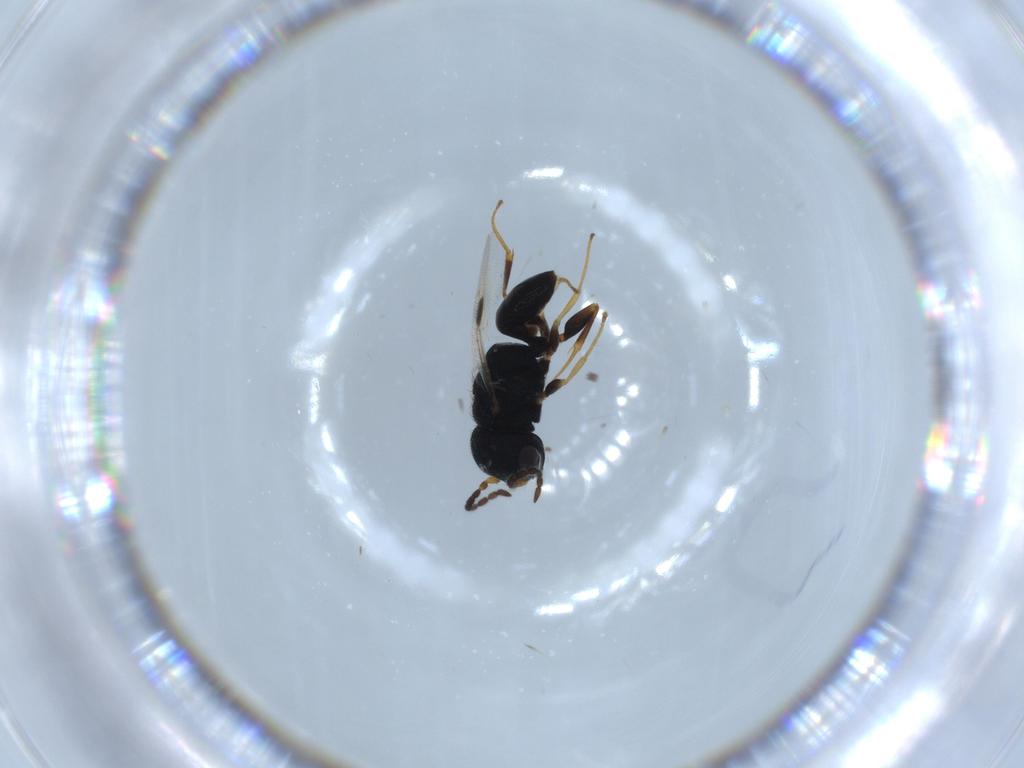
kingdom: Animalia
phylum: Arthropoda
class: Insecta
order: Hymenoptera
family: Dryinidae
